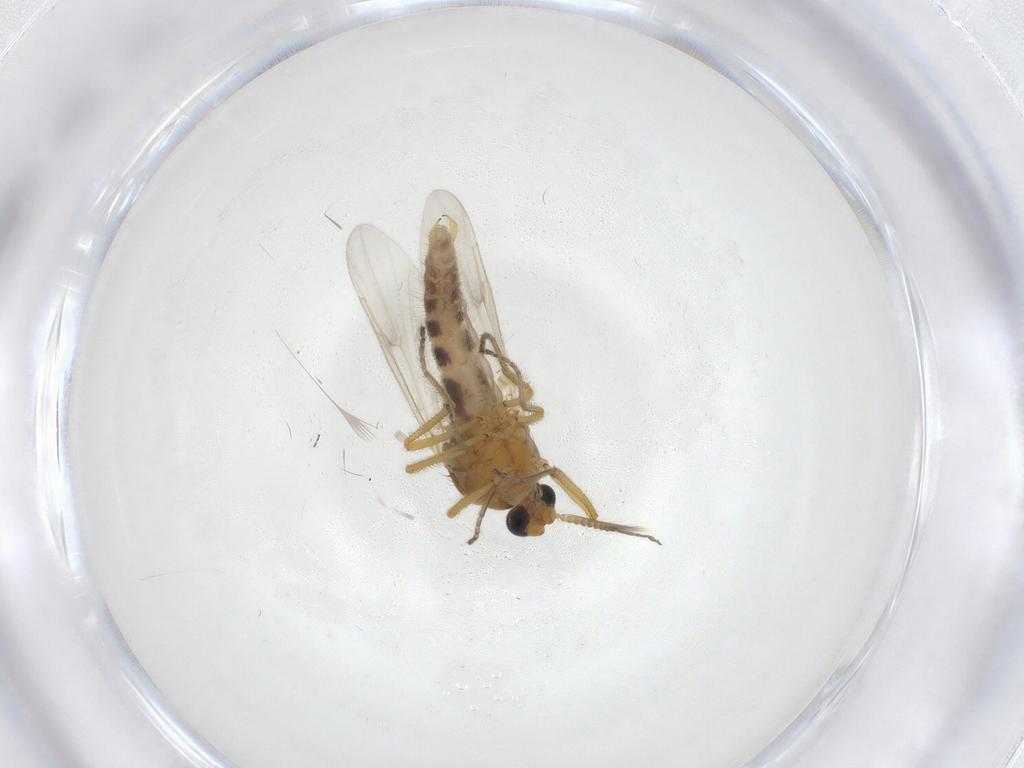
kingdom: Animalia
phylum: Arthropoda
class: Insecta
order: Diptera
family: Ceratopogonidae
